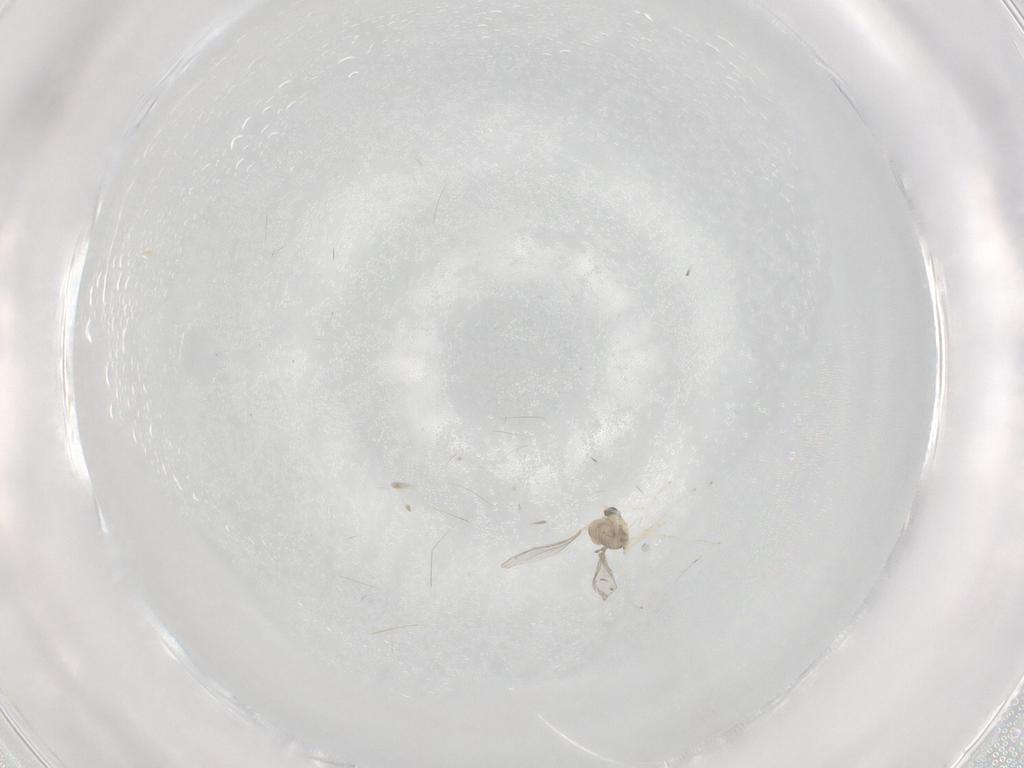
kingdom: Animalia
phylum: Arthropoda
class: Insecta
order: Diptera
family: Cecidomyiidae
